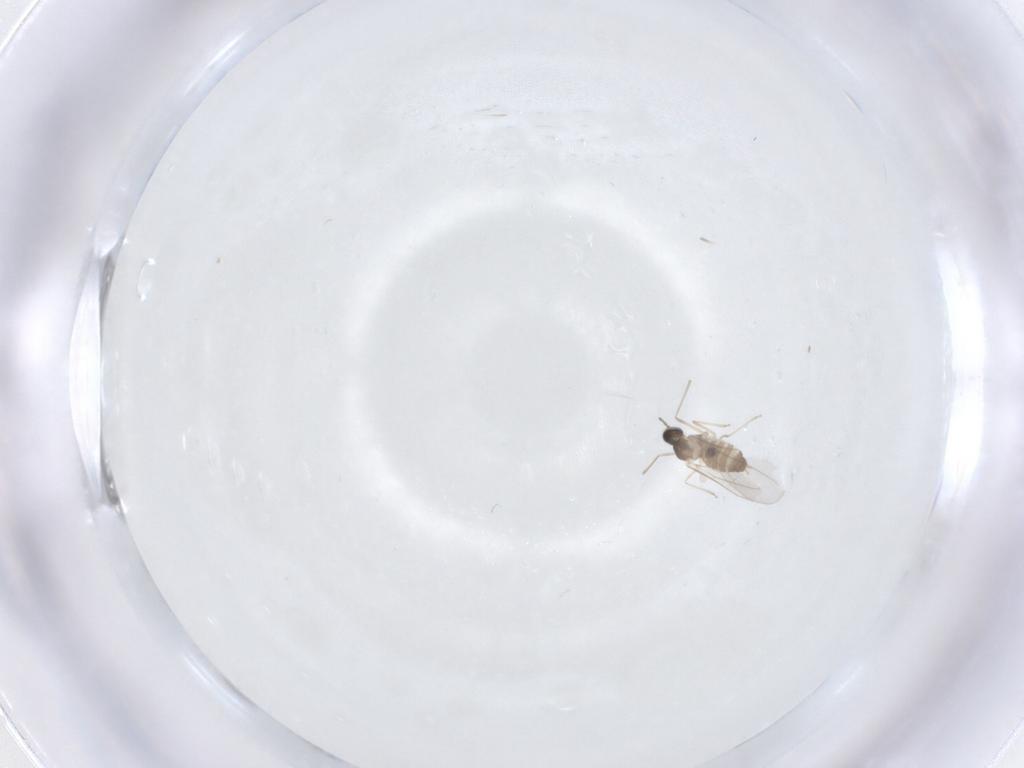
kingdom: Animalia
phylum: Arthropoda
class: Insecta
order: Diptera
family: Cecidomyiidae
